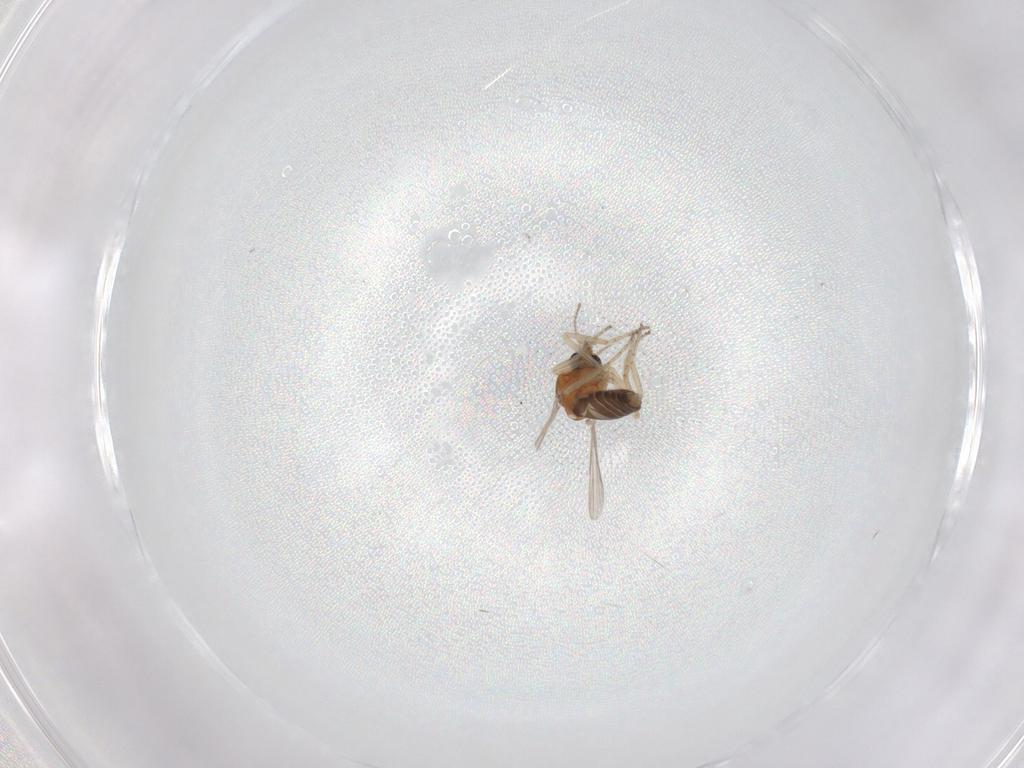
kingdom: Animalia
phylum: Arthropoda
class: Insecta
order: Diptera
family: Ceratopogonidae
